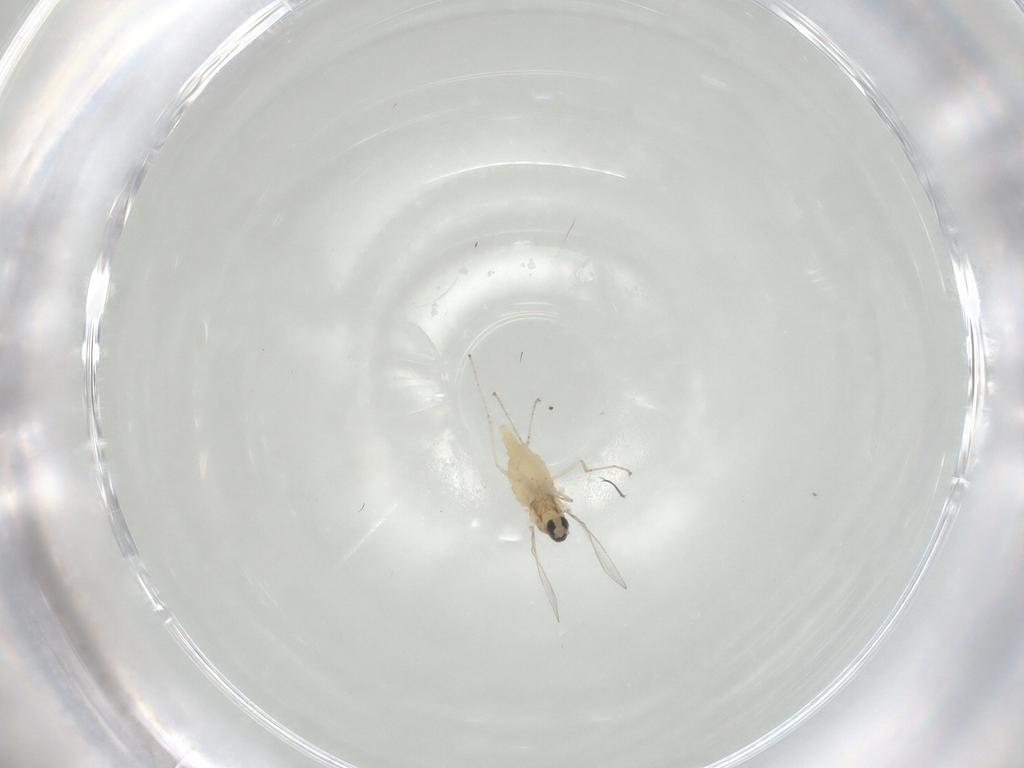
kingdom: Animalia
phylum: Arthropoda
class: Insecta
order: Diptera
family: Cecidomyiidae
